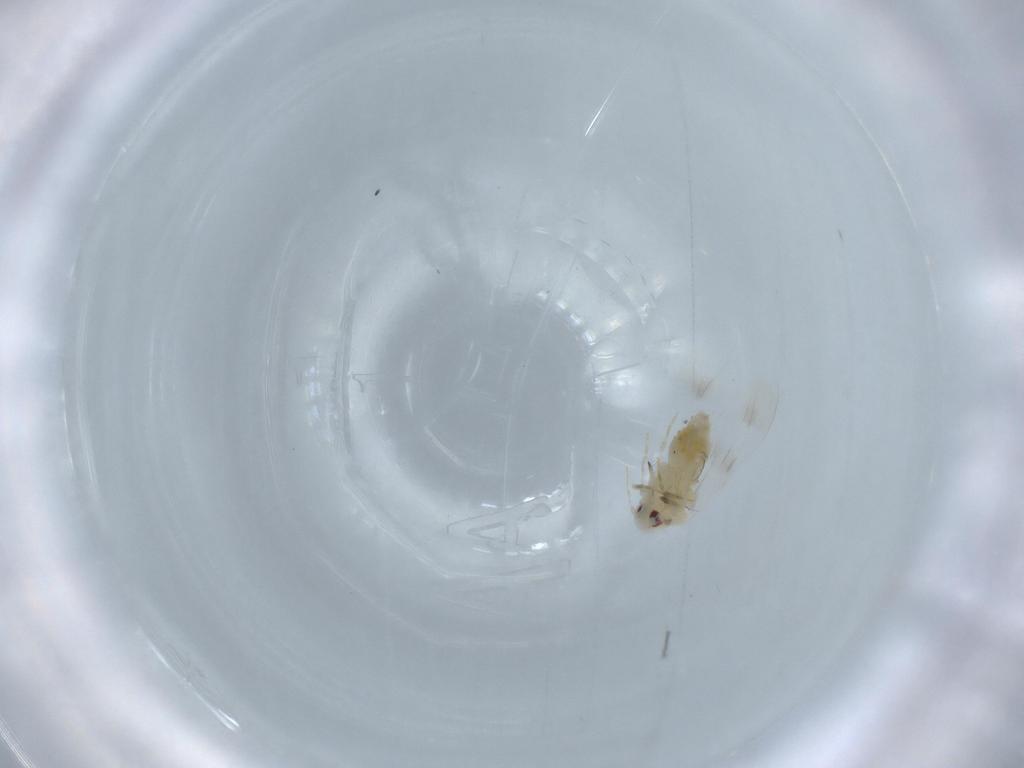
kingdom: Animalia
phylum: Arthropoda
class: Insecta
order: Hemiptera
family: Aleyrodidae
